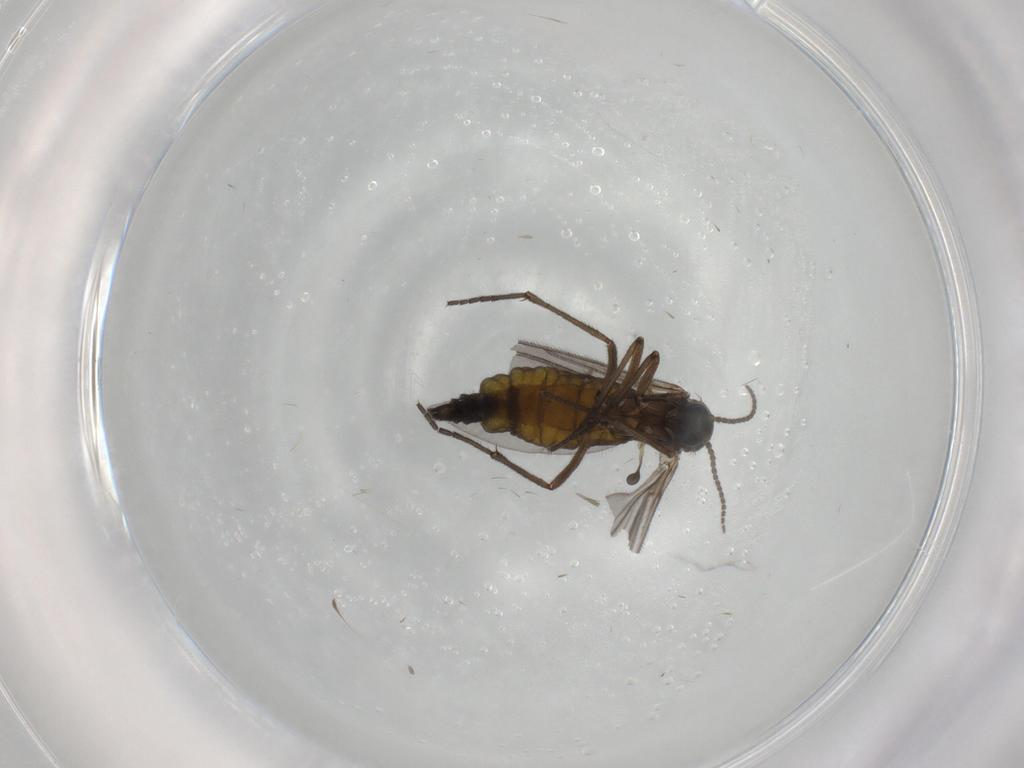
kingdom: Animalia
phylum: Arthropoda
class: Insecta
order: Diptera
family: Sciaridae
